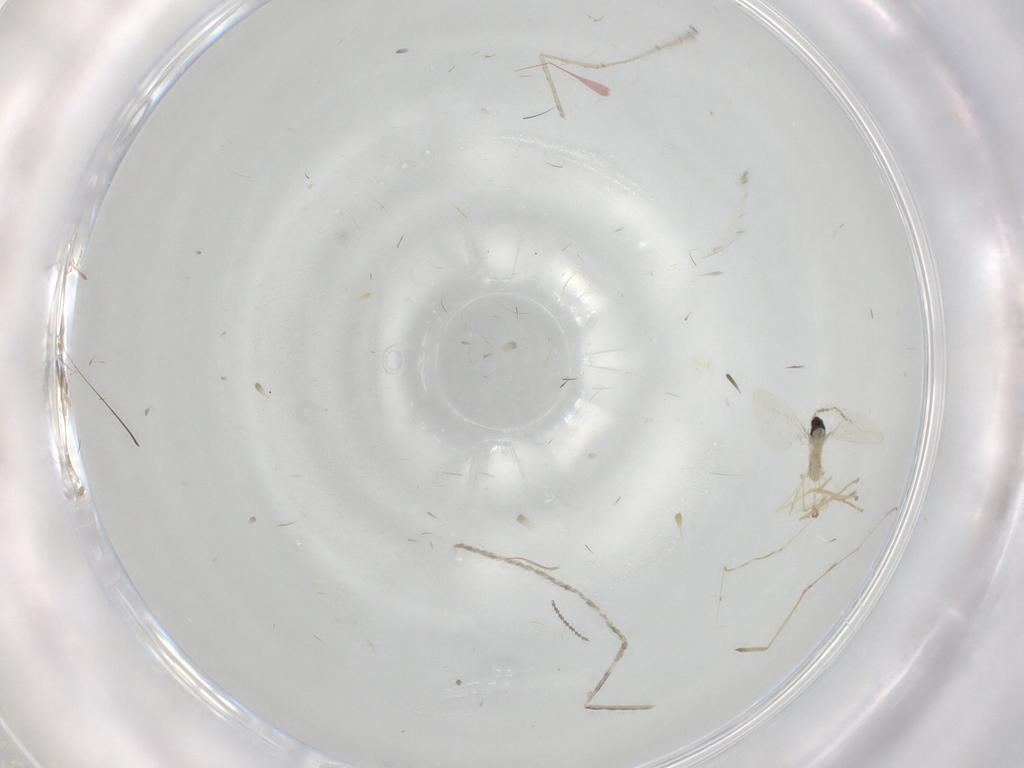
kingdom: Animalia
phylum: Arthropoda
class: Insecta
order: Diptera
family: Cecidomyiidae
